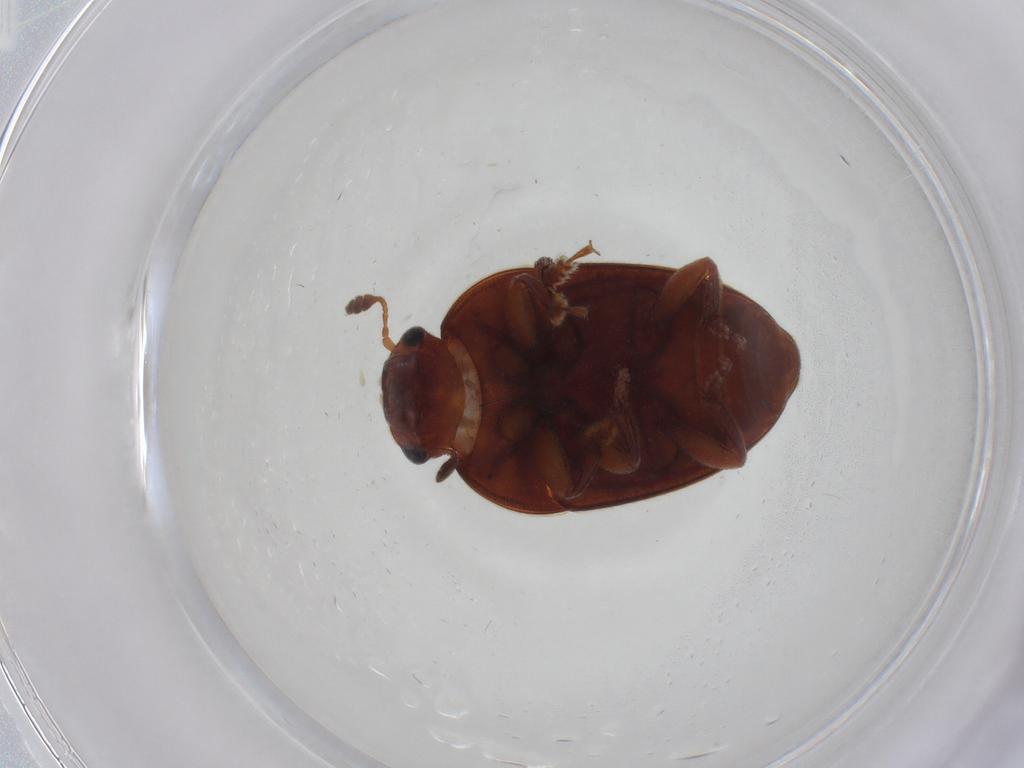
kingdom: Animalia
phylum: Arthropoda
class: Insecta
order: Coleoptera
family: Nitidulidae
